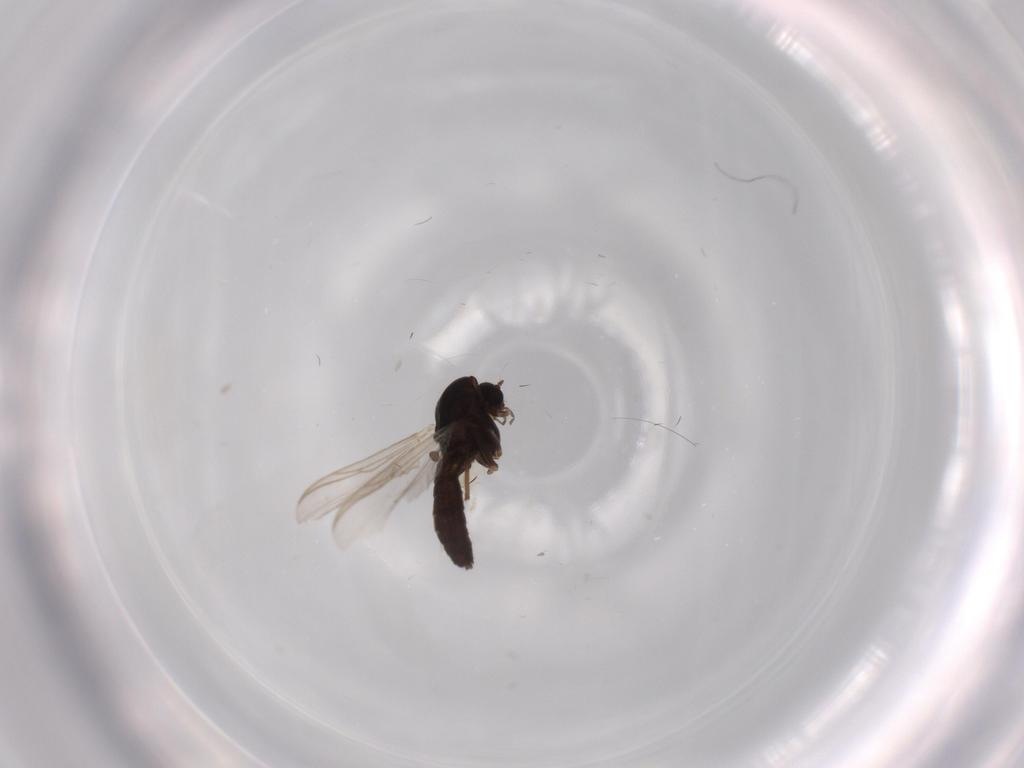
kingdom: Animalia
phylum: Arthropoda
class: Insecta
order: Diptera
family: Chironomidae
